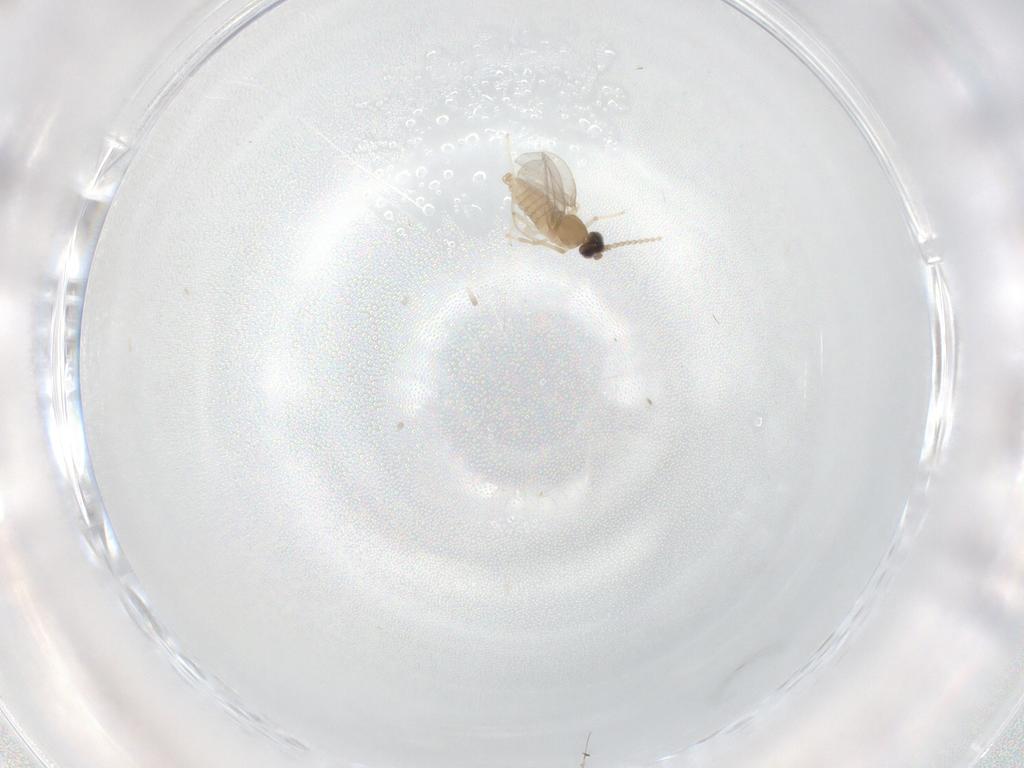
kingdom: Animalia
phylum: Arthropoda
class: Insecta
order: Diptera
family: Cecidomyiidae
